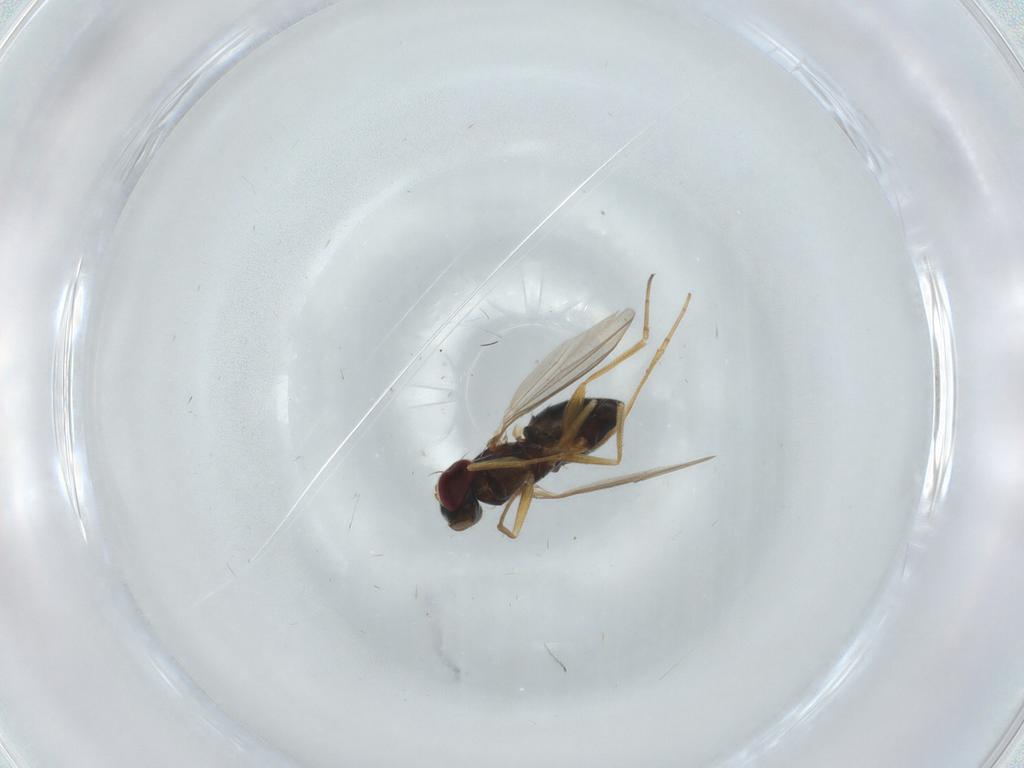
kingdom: Animalia
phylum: Arthropoda
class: Insecta
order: Diptera
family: Dolichopodidae
